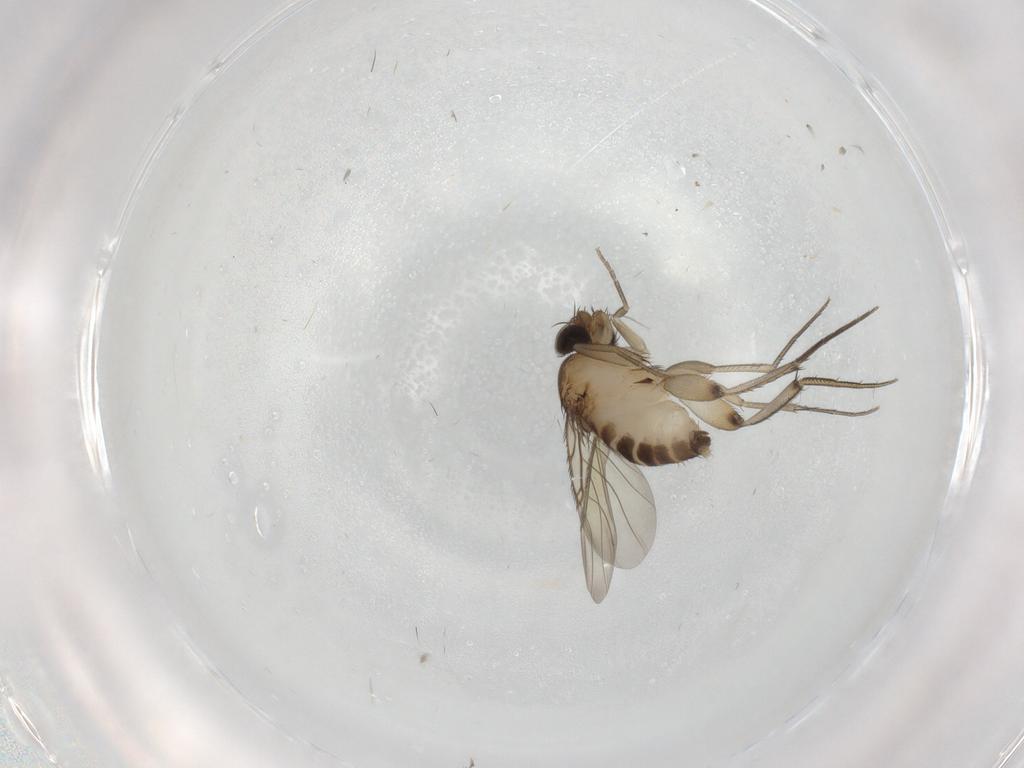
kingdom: Animalia
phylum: Arthropoda
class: Insecta
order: Diptera
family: Phoridae
